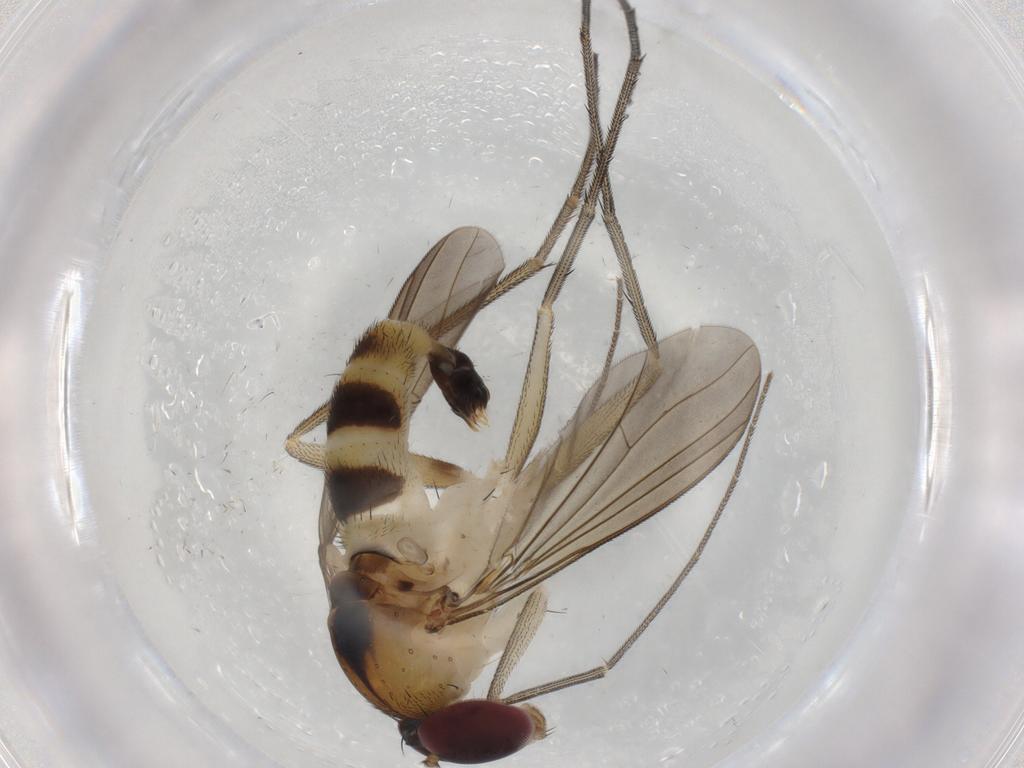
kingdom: Animalia
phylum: Arthropoda
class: Insecta
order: Diptera
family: Dolichopodidae
